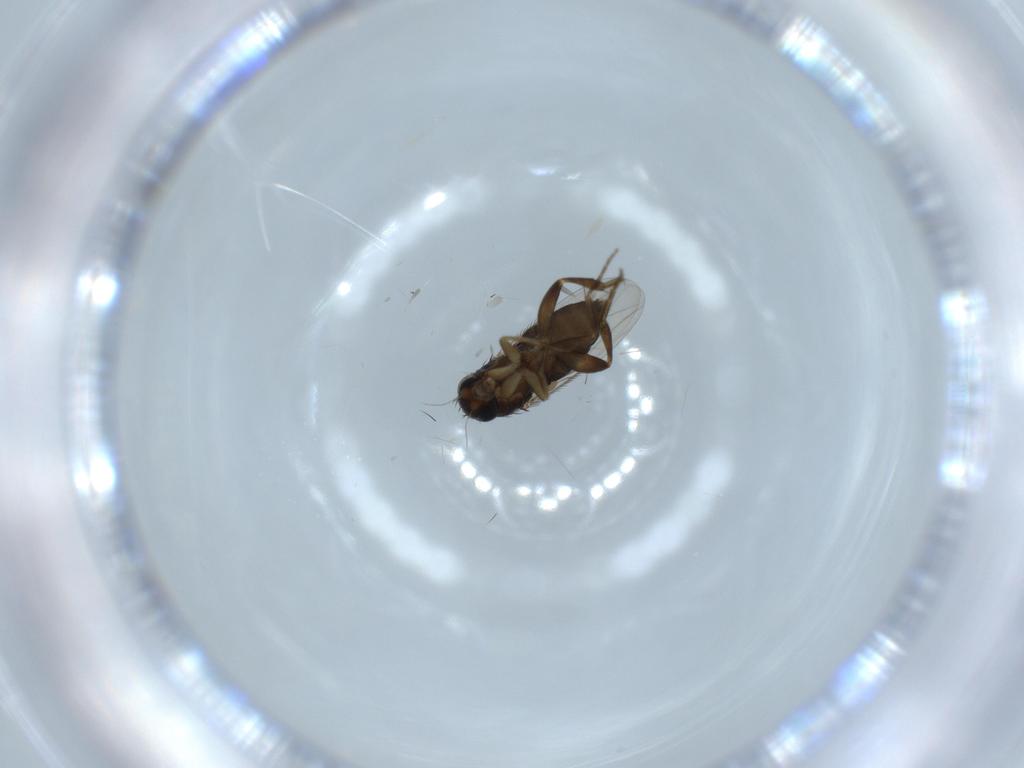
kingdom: Animalia
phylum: Arthropoda
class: Insecta
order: Diptera
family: Phoridae
